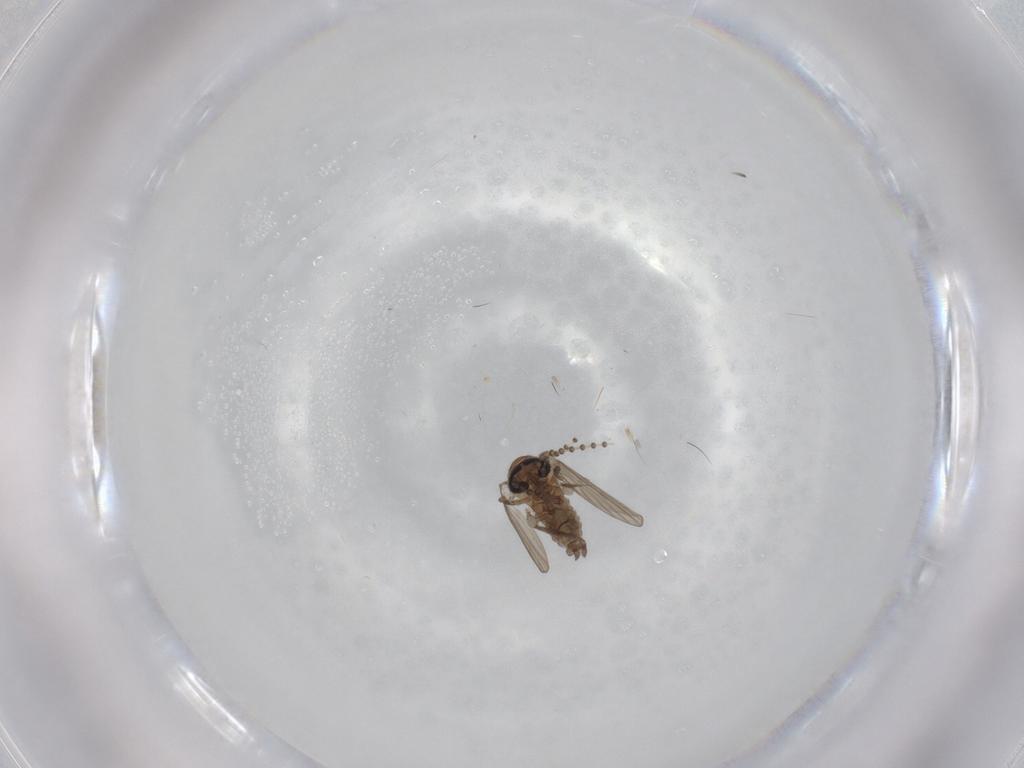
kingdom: Animalia
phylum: Arthropoda
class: Insecta
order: Diptera
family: Psychodidae
